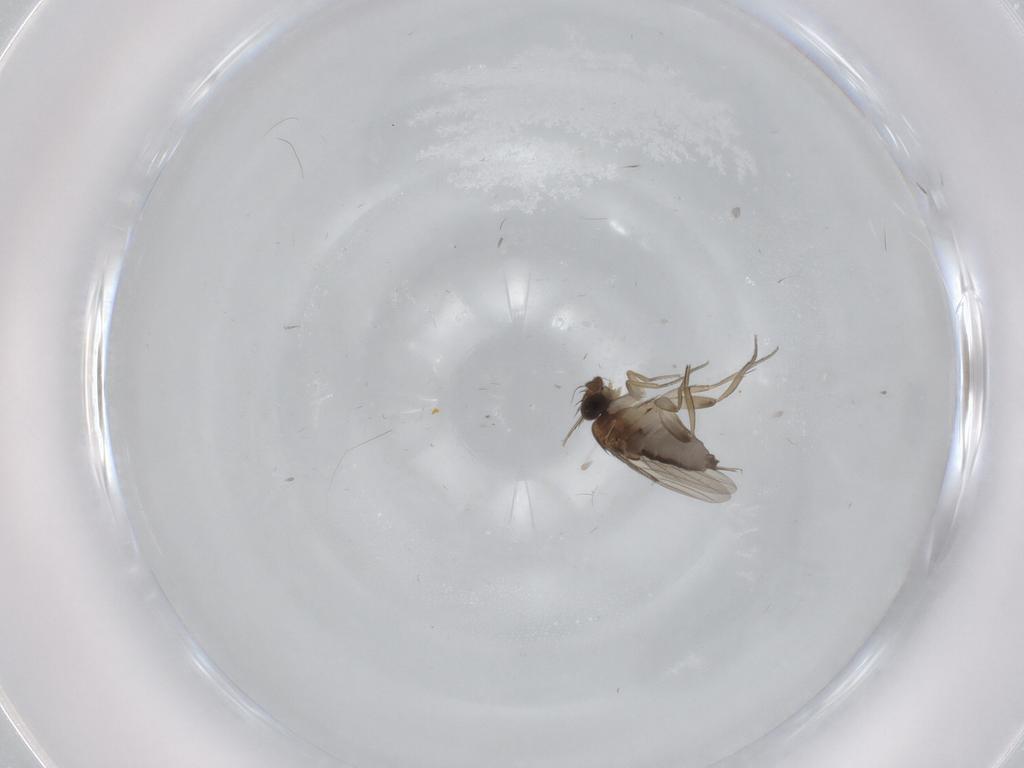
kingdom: Animalia
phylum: Arthropoda
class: Insecta
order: Diptera
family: Phoridae
